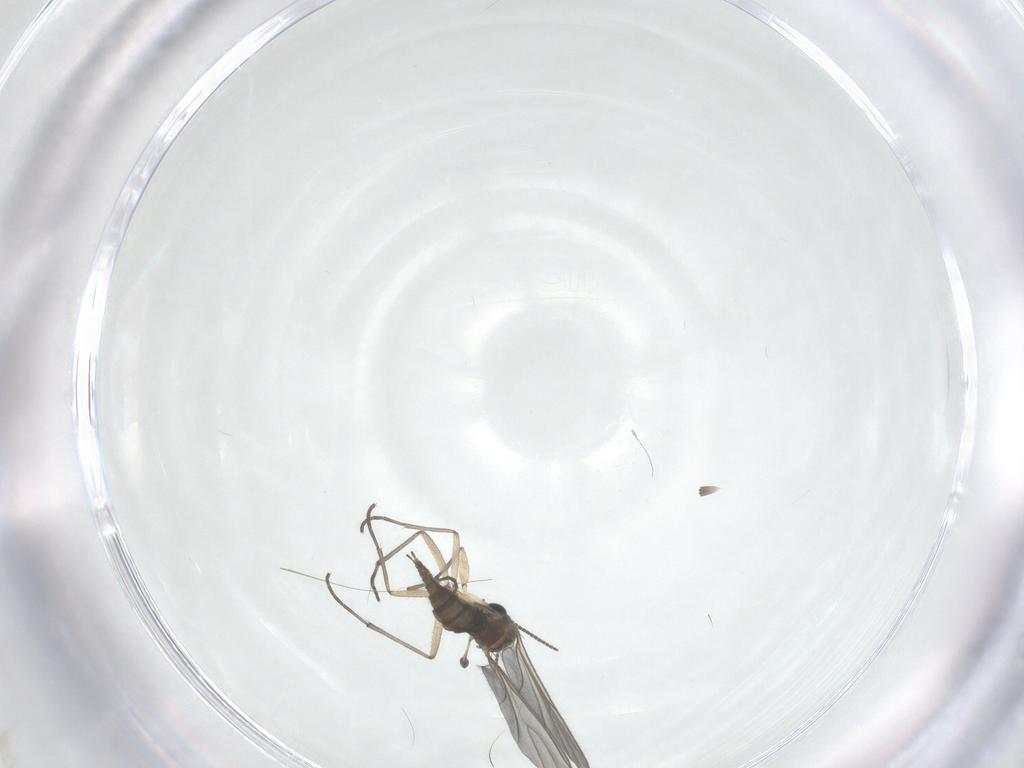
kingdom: Animalia
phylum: Arthropoda
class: Insecta
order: Diptera
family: Sciaridae
